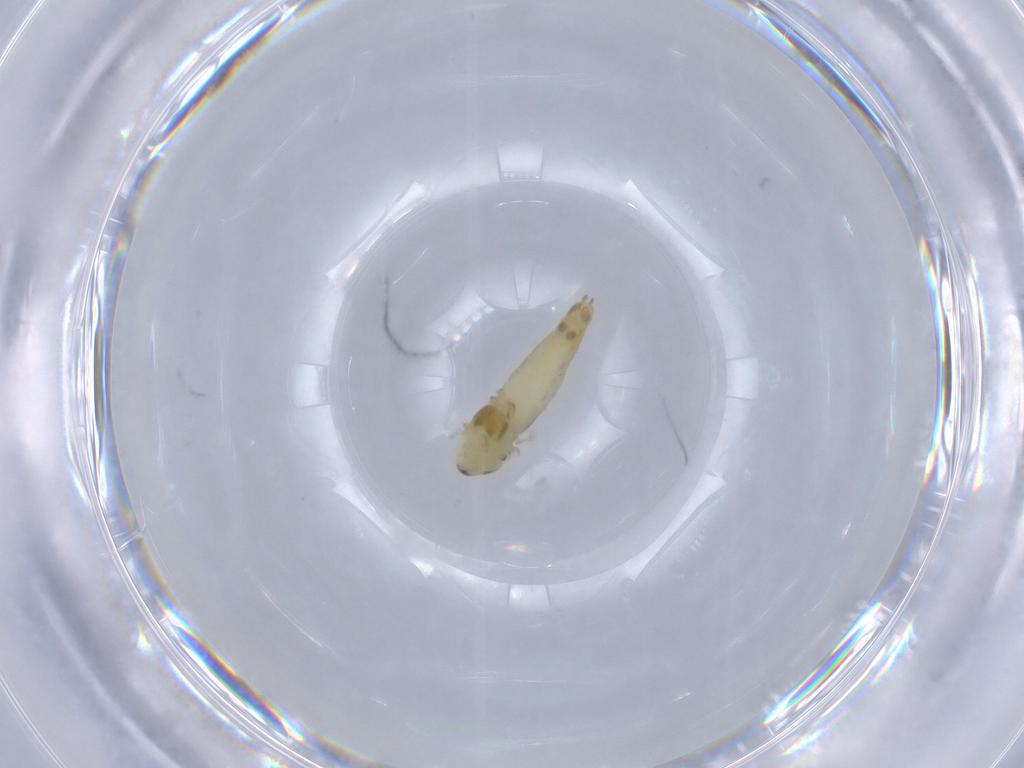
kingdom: Animalia
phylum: Arthropoda
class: Insecta
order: Diptera
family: Chironomidae
